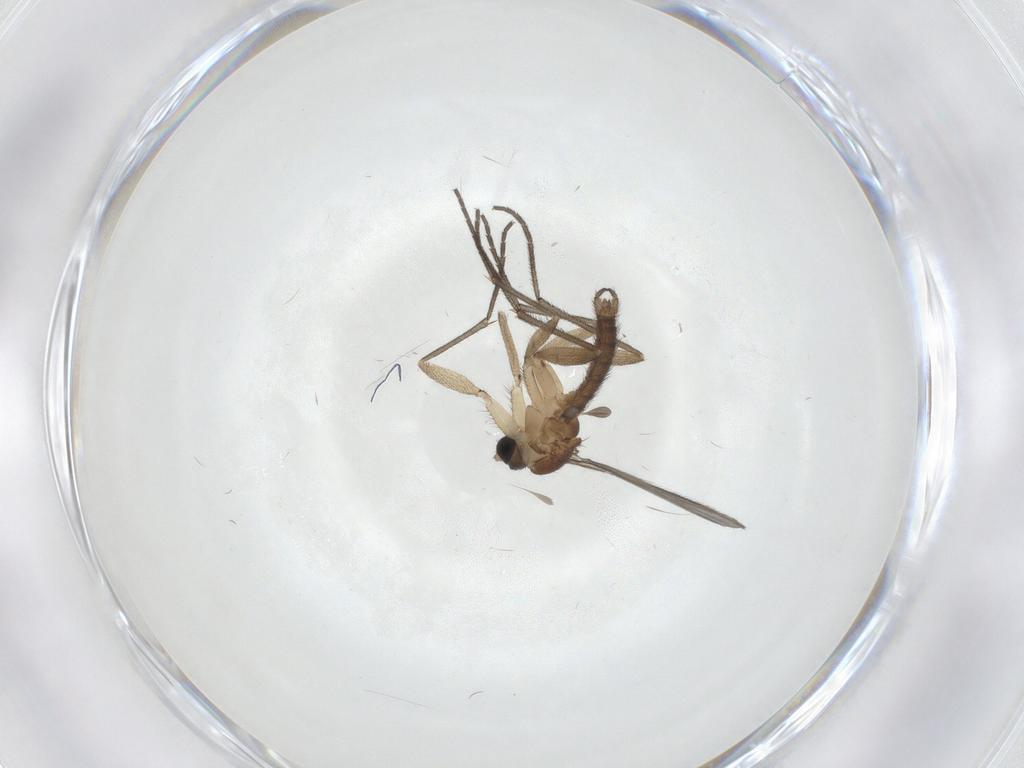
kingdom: Animalia
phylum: Arthropoda
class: Insecta
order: Diptera
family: Sciaridae
